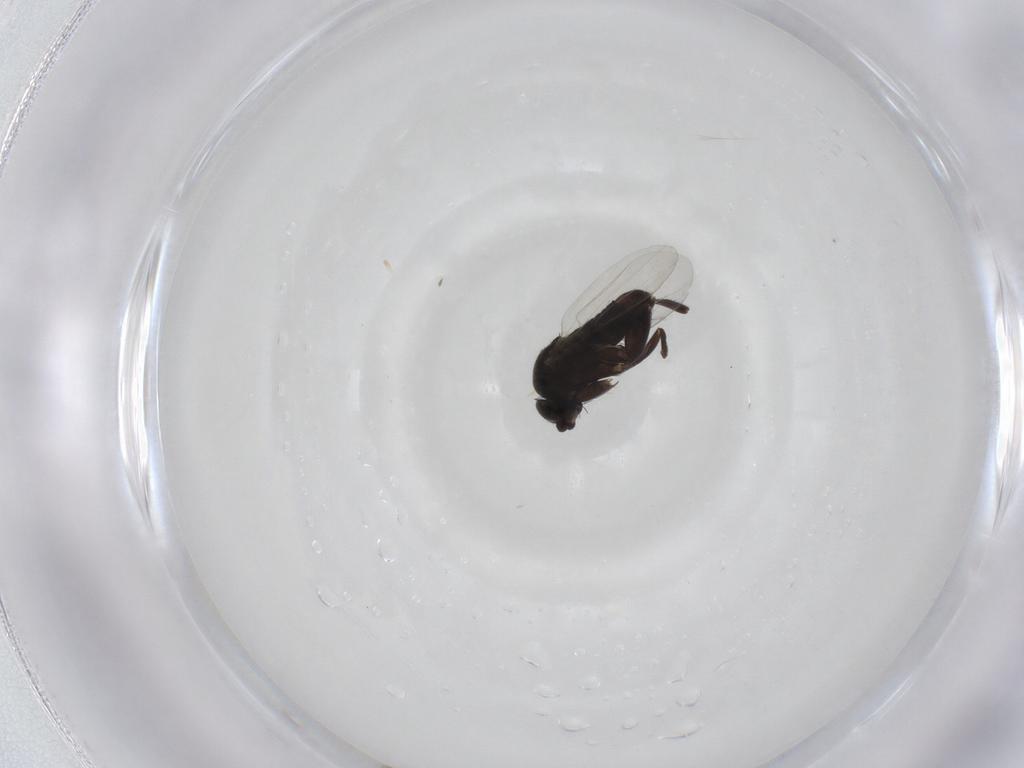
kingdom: Animalia
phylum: Arthropoda
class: Insecta
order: Diptera
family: Phoridae
